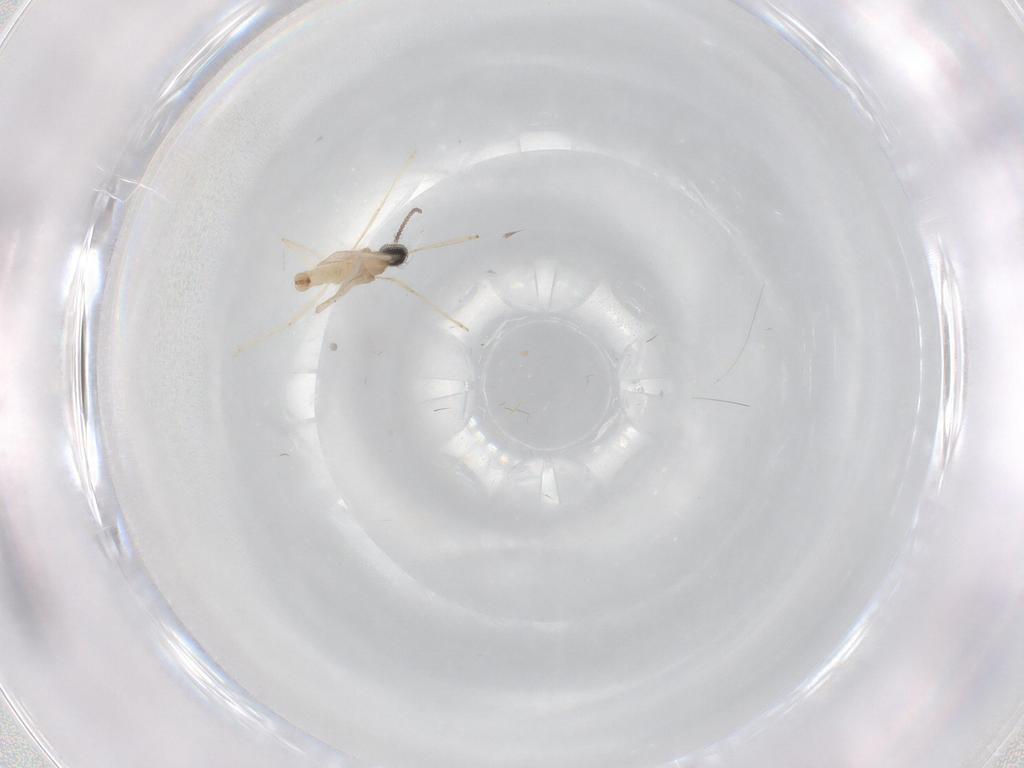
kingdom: Animalia
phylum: Arthropoda
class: Insecta
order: Diptera
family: Cecidomyiidae
